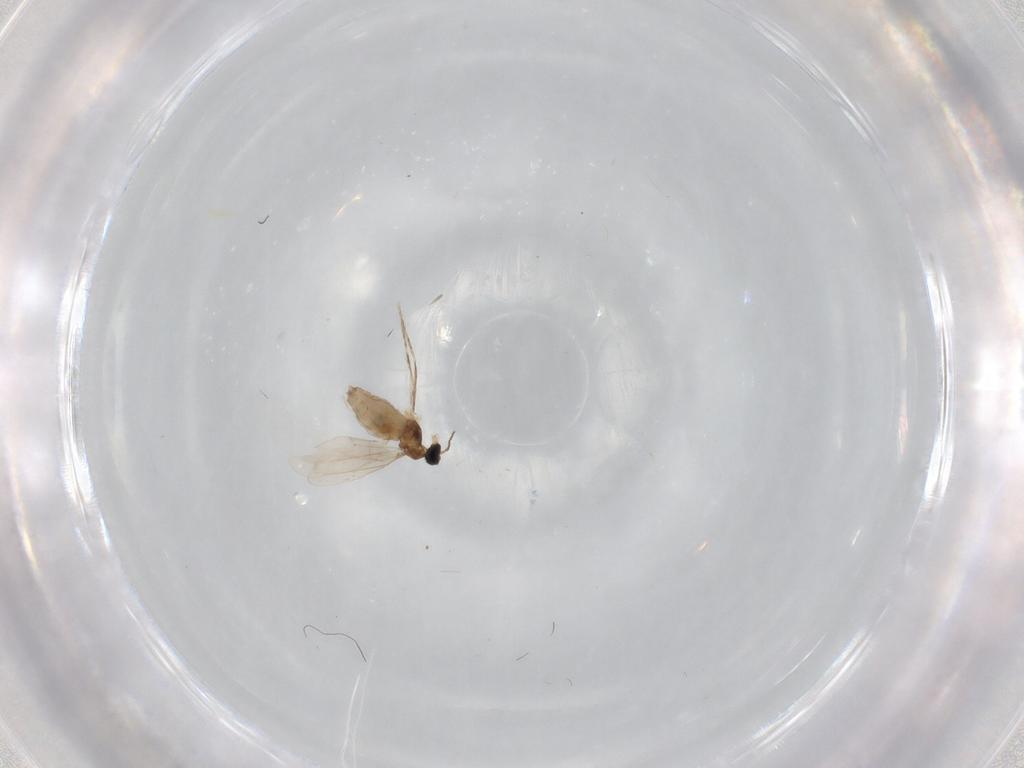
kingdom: Animalia
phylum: Arthropoda
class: Insecta
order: Diptera
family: Cecidomyiidae
